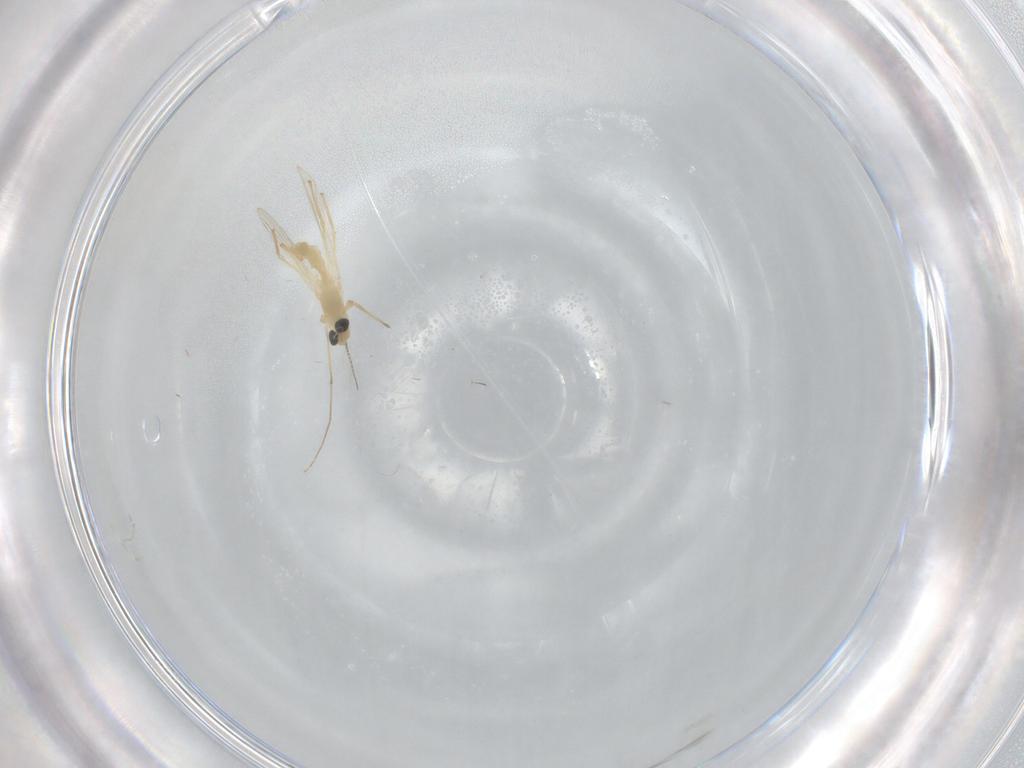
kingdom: Animalia
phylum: Arthropoda
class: Insecta
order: Diptera
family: Chironomidae
